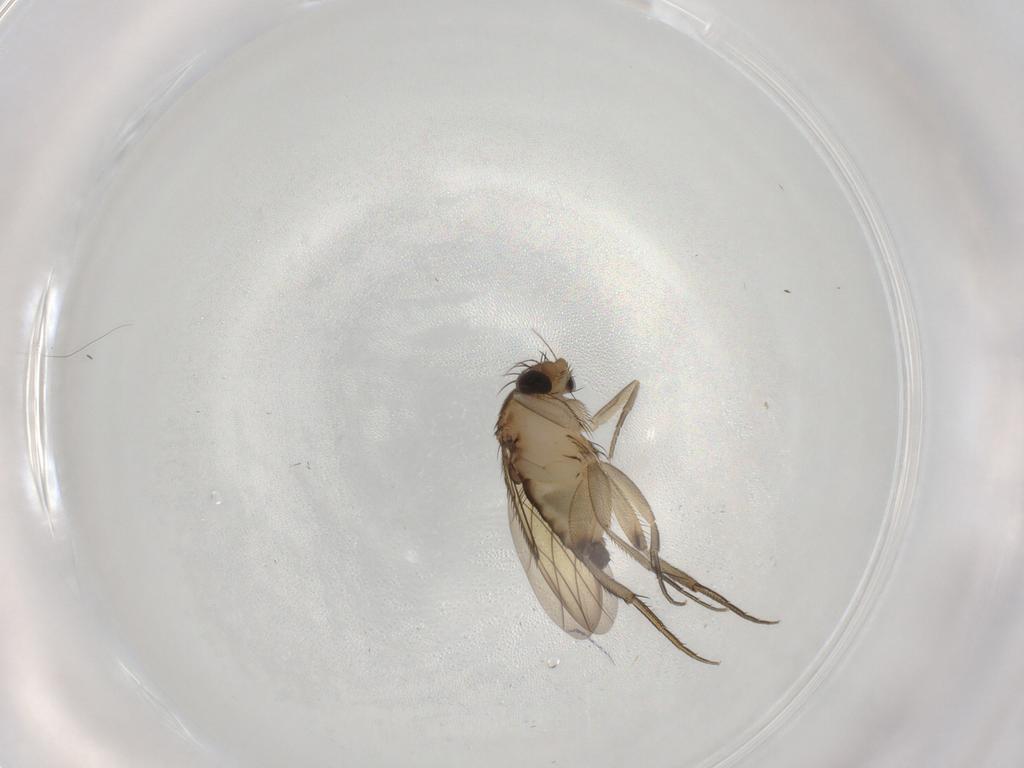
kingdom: Animalia
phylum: Arthropoda
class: Insecta
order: Diptera
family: Phoridae
